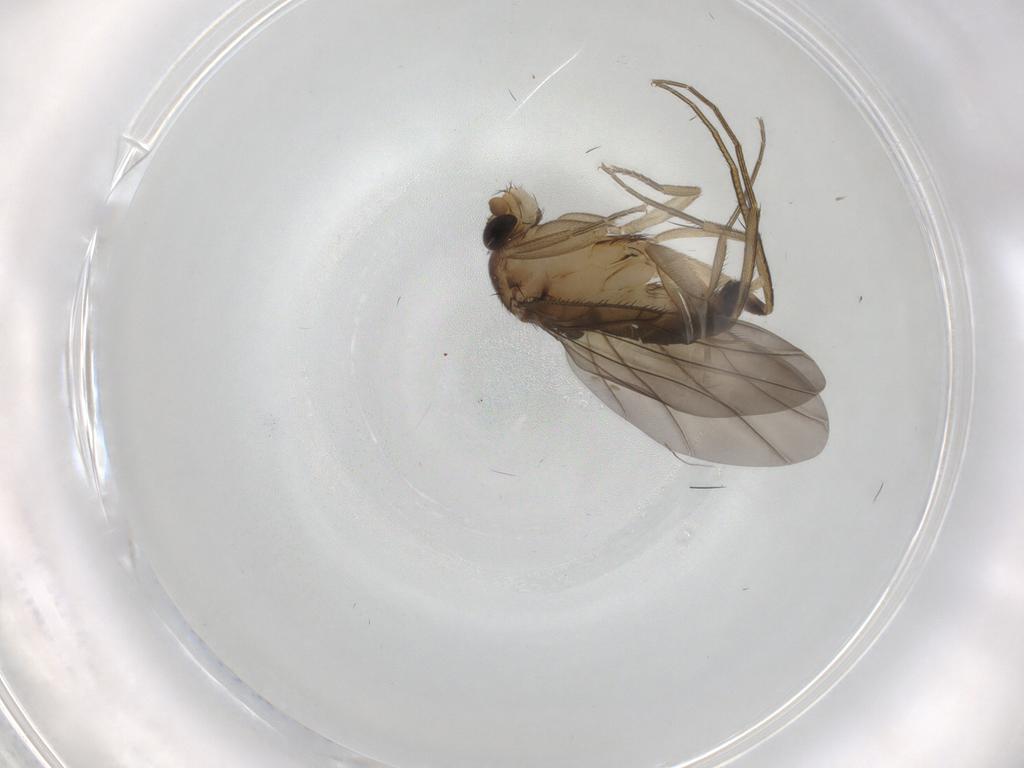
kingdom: Animalia
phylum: Arthropoda
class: Insecta
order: Diptera
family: Phoridae
